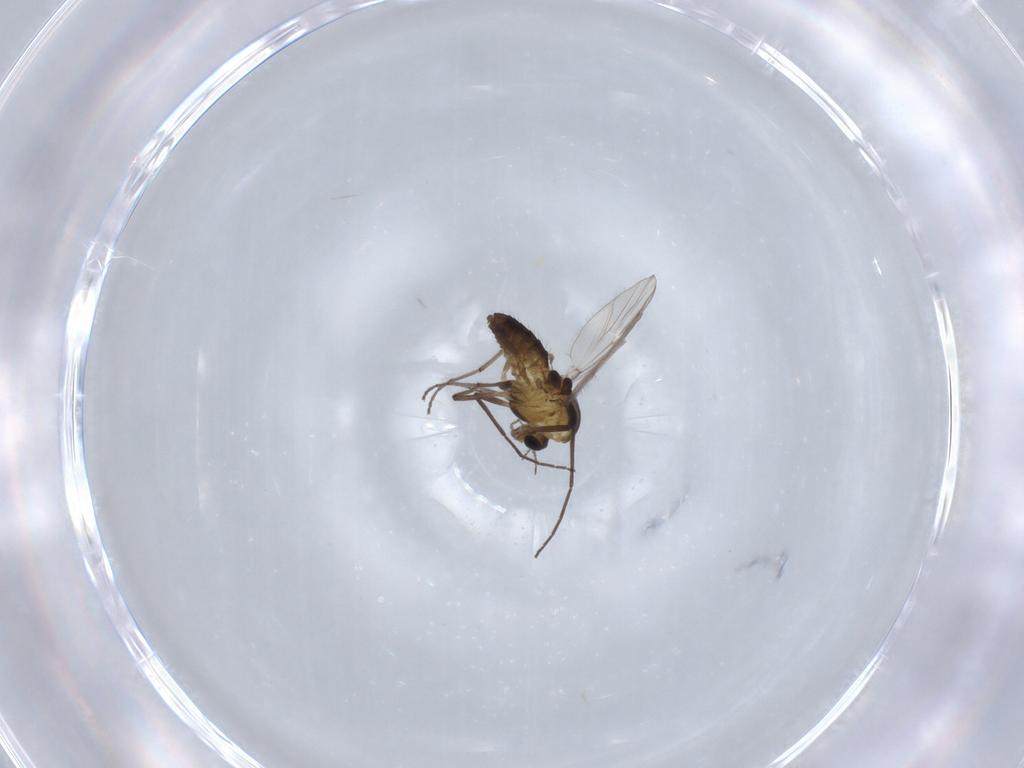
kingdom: Animalia
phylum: Arthropoda
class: Insecta
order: Diptera
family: Chironomidae
